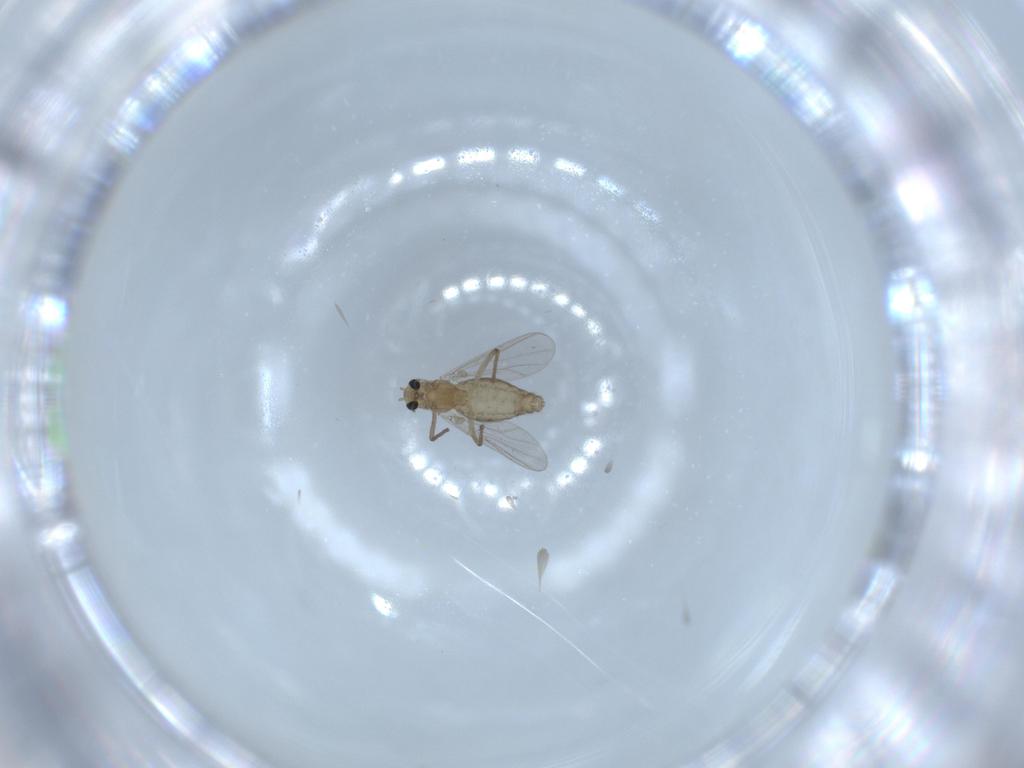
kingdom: Animalia
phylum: Arthropoda
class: Insecta
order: Diptera
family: Chironomidae
